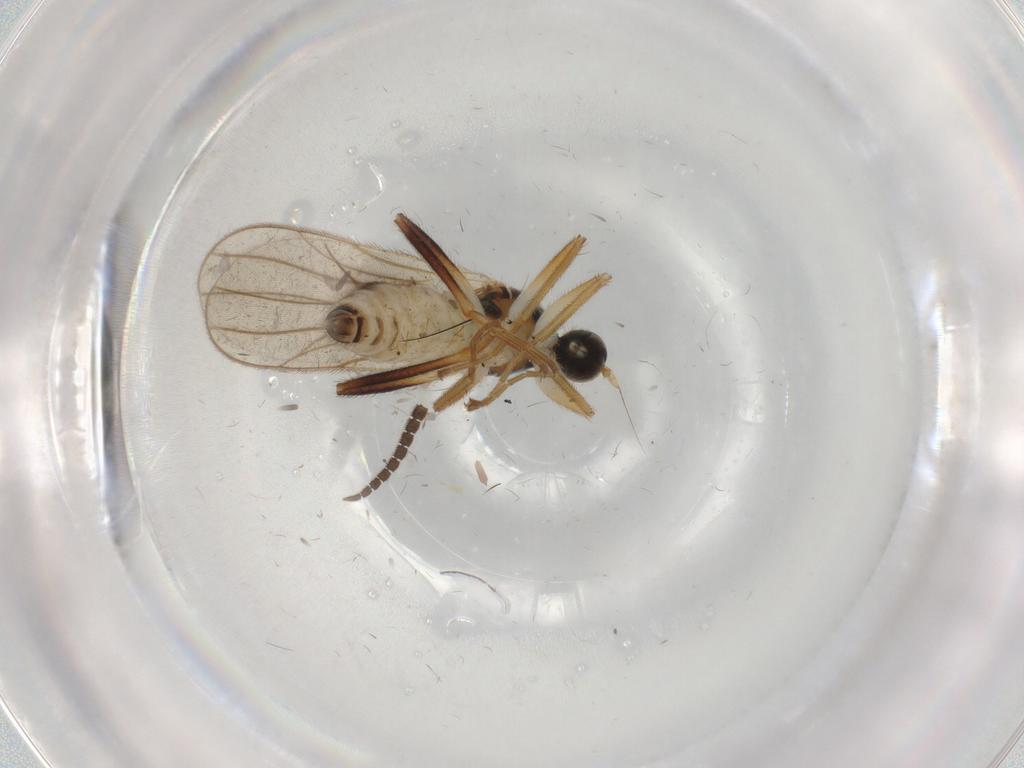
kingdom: Animalia
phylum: Arthropoda
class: Insecta
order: Diptera
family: Hybotidae
